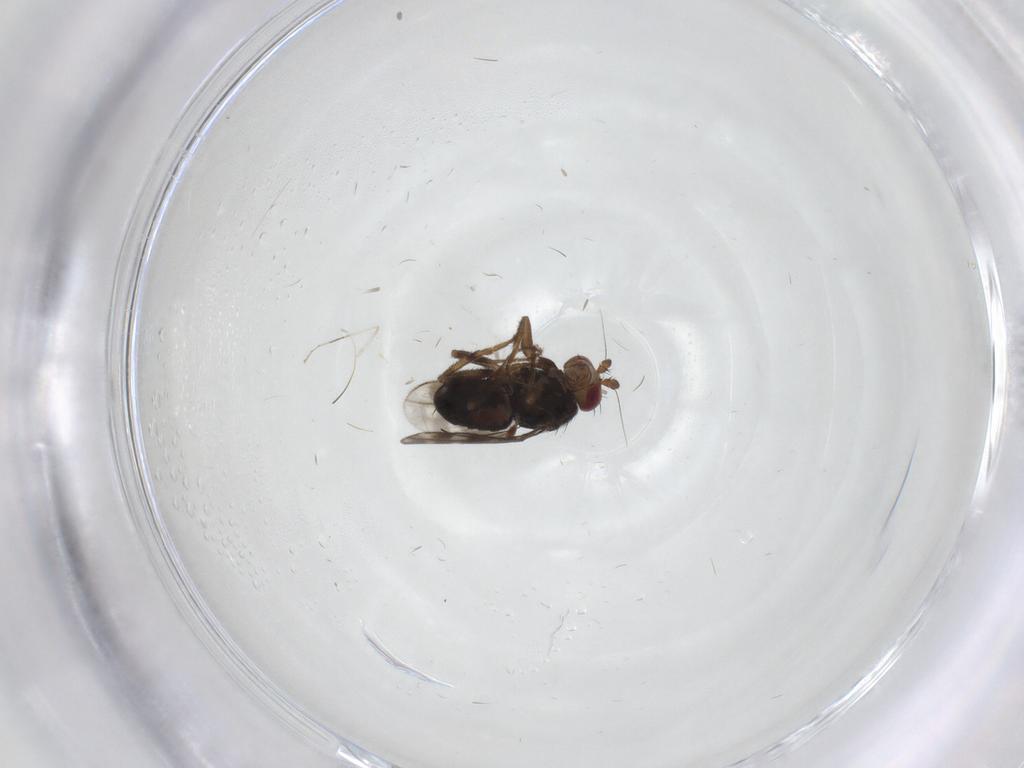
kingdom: Animalia
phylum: Arthropoda
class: Insecta
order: Diptera
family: Sphaeroceridae
